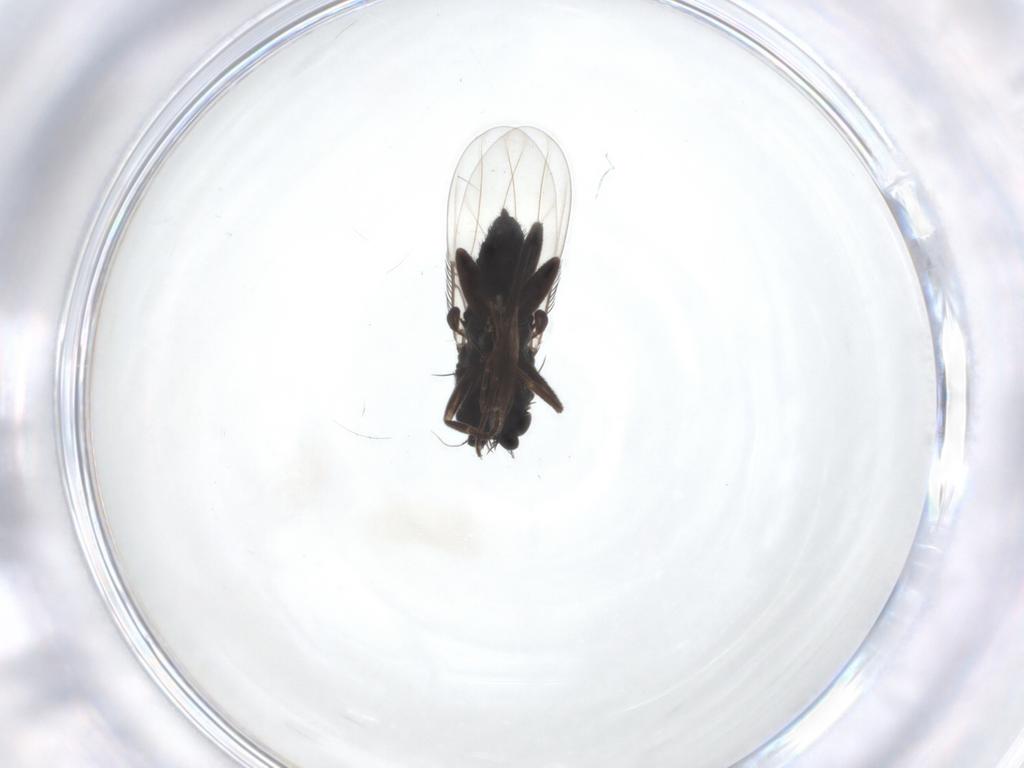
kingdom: Animalia
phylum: Arthropoda
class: Insecta
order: Diptera
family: Phoridae
